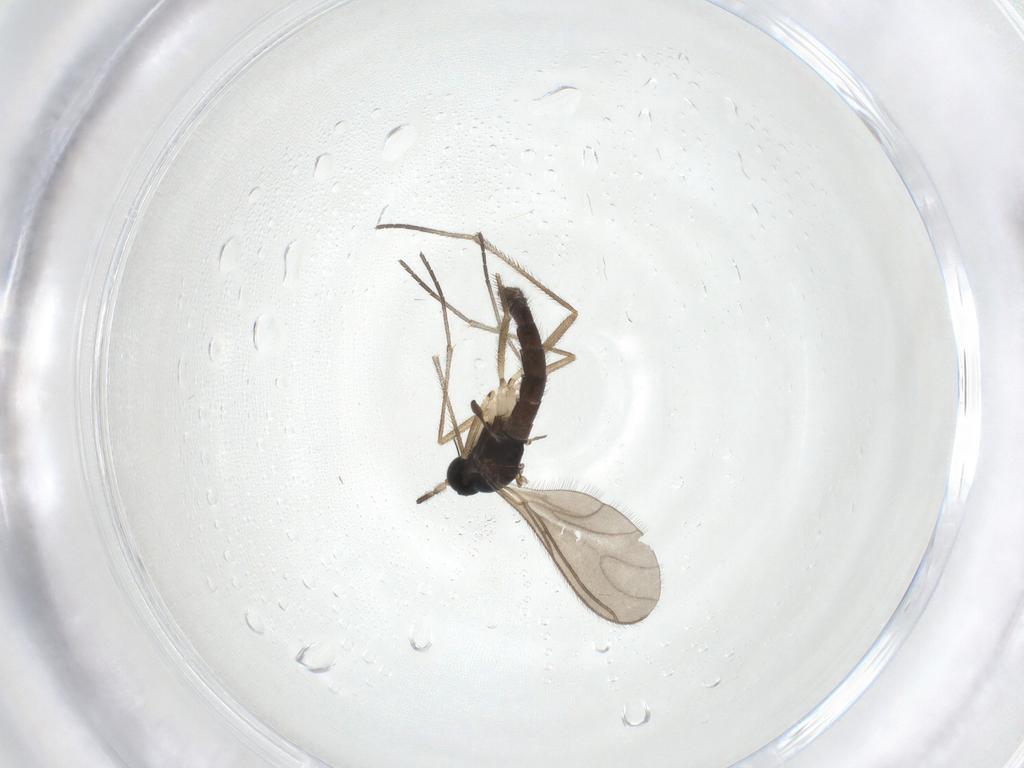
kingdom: Animalia
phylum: Arthropoda
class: Insecta
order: Diptera
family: Sciaridae
